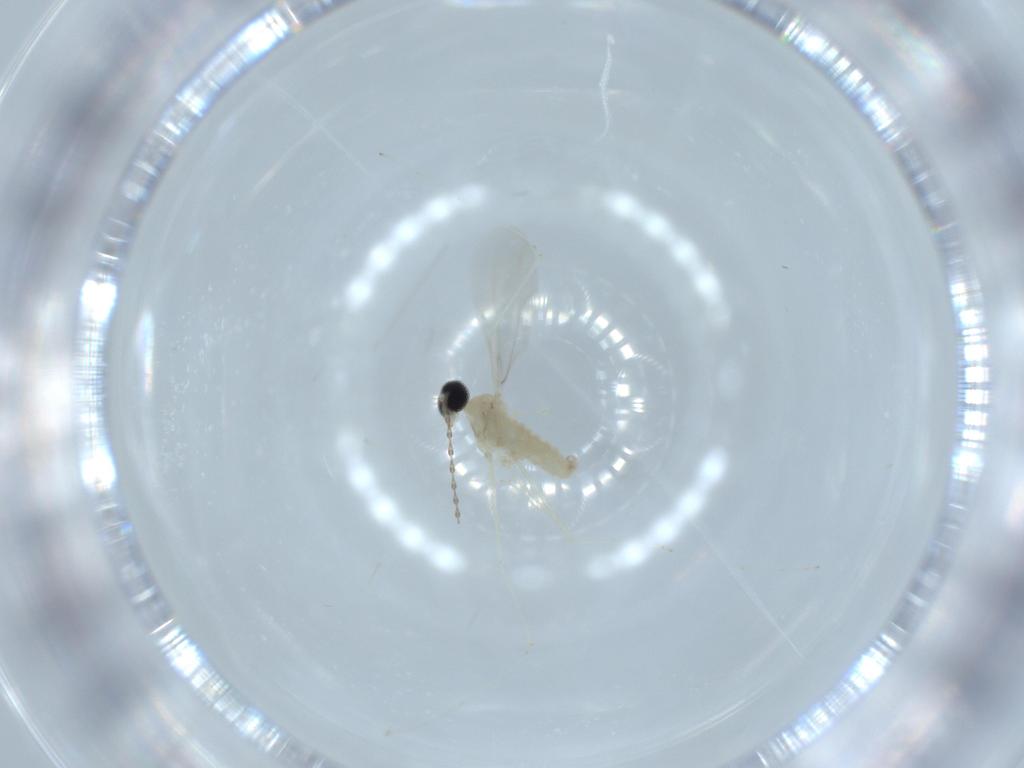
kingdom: Animalia
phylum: Arthropoda
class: Insecta
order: Diptera
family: Cecidomyiidae
